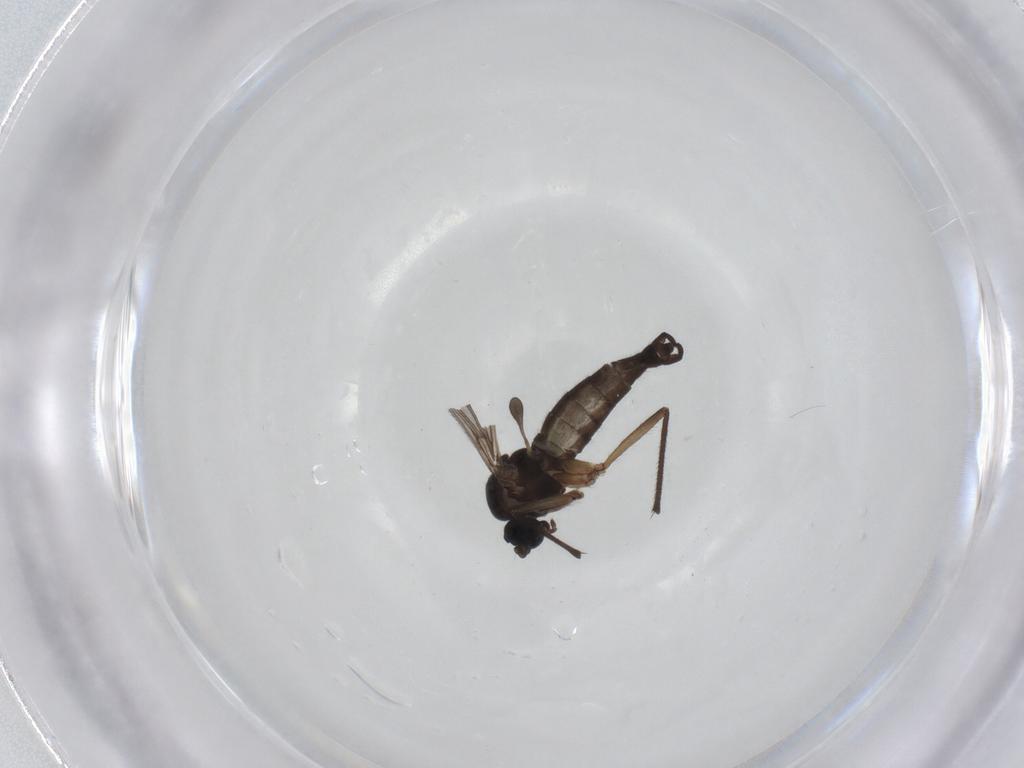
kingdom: Animalia
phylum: Arthropoda
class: Insecta
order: Diptera
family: Sciaridae
